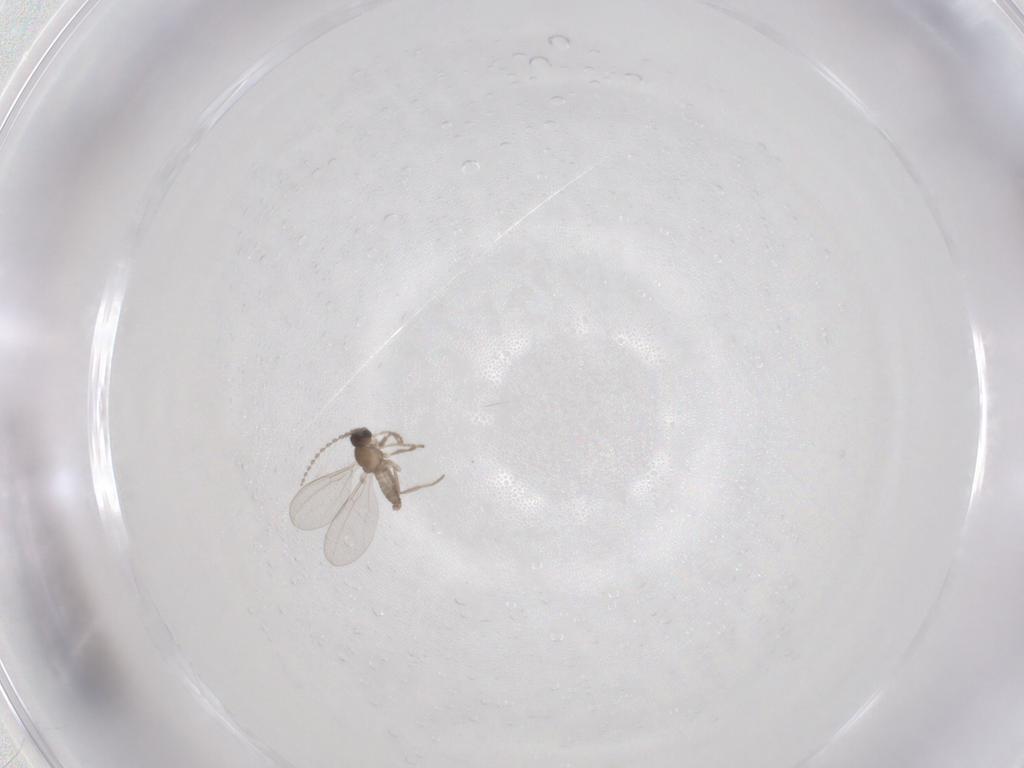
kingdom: Animalia
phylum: Arthropoda
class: Insecta
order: Diptera
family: Cecidomyiidae
